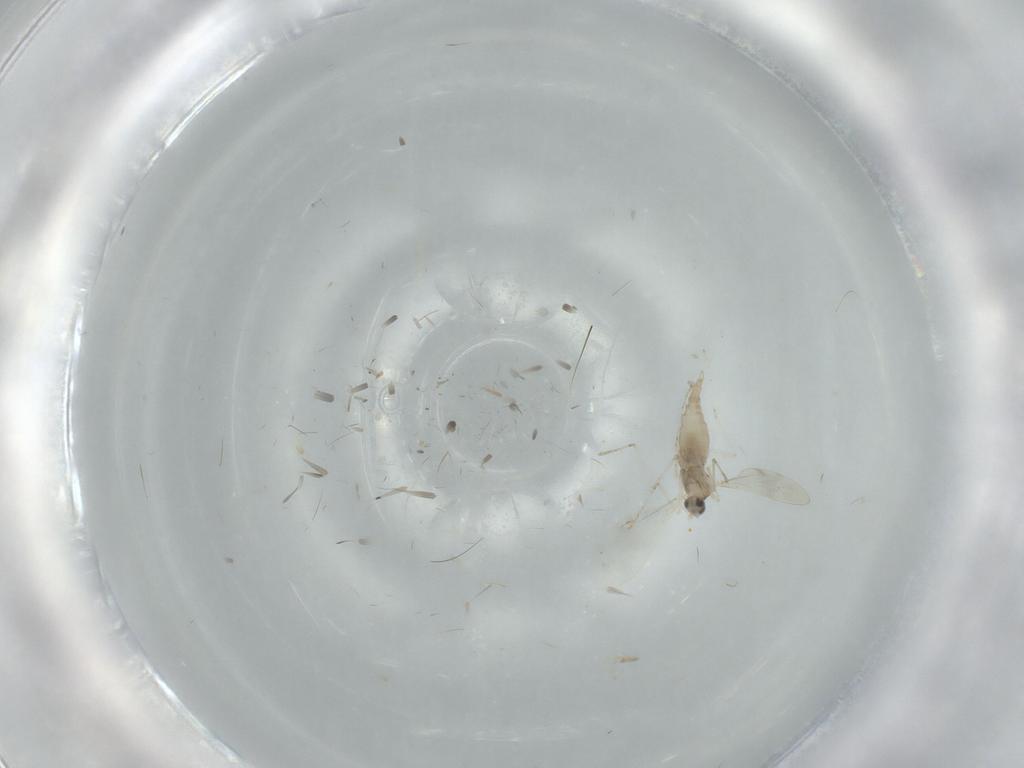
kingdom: Animalia
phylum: Arthropoda
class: Insecta
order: Diptera
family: Cecidomyiidae
